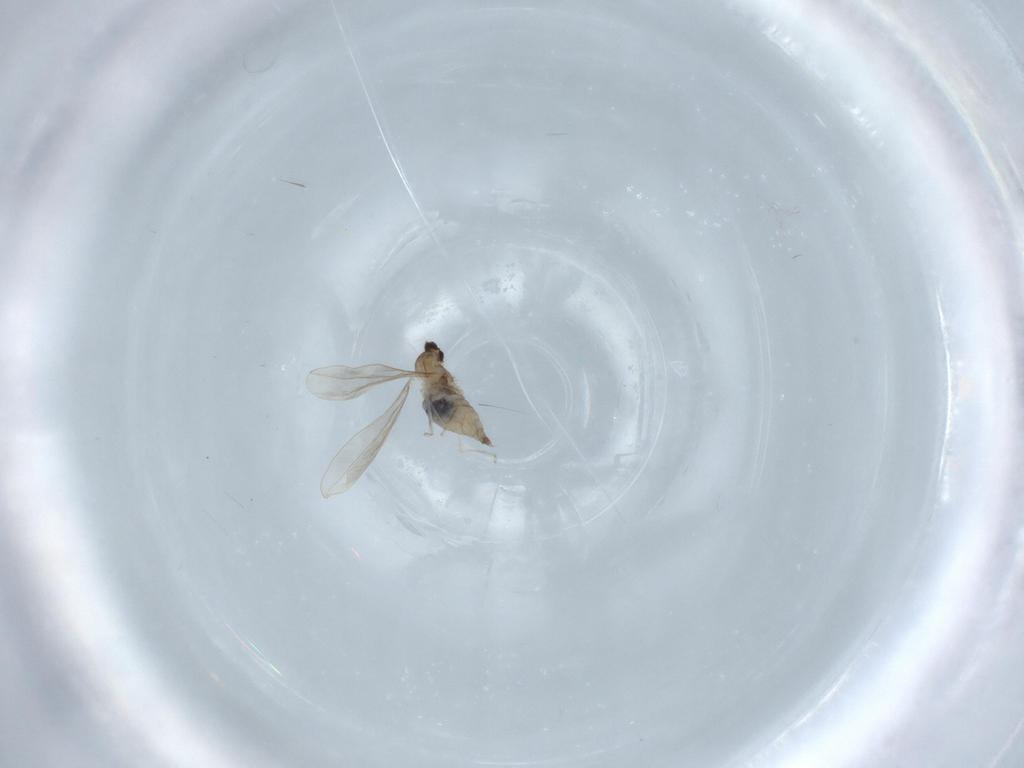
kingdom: Animalia
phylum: Arthropoda
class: Insecta
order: Diptera
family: Cecidomyiidae
